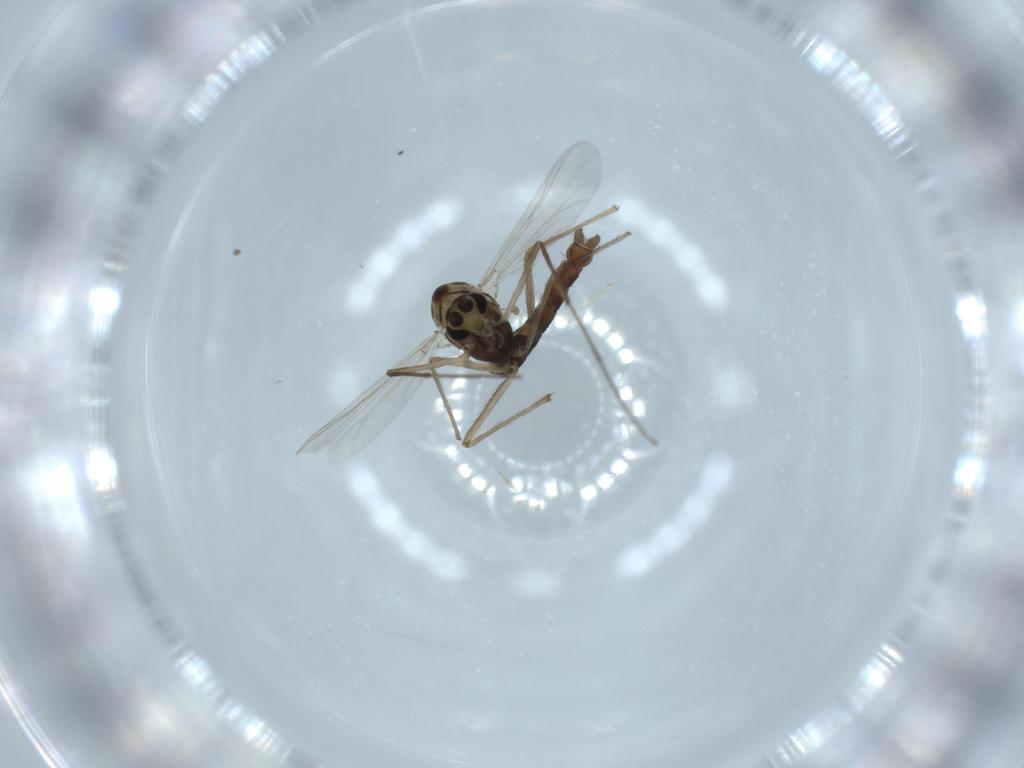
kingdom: Animalia
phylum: Arthropoda
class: Insecta
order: Diptera
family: Chironomidae
